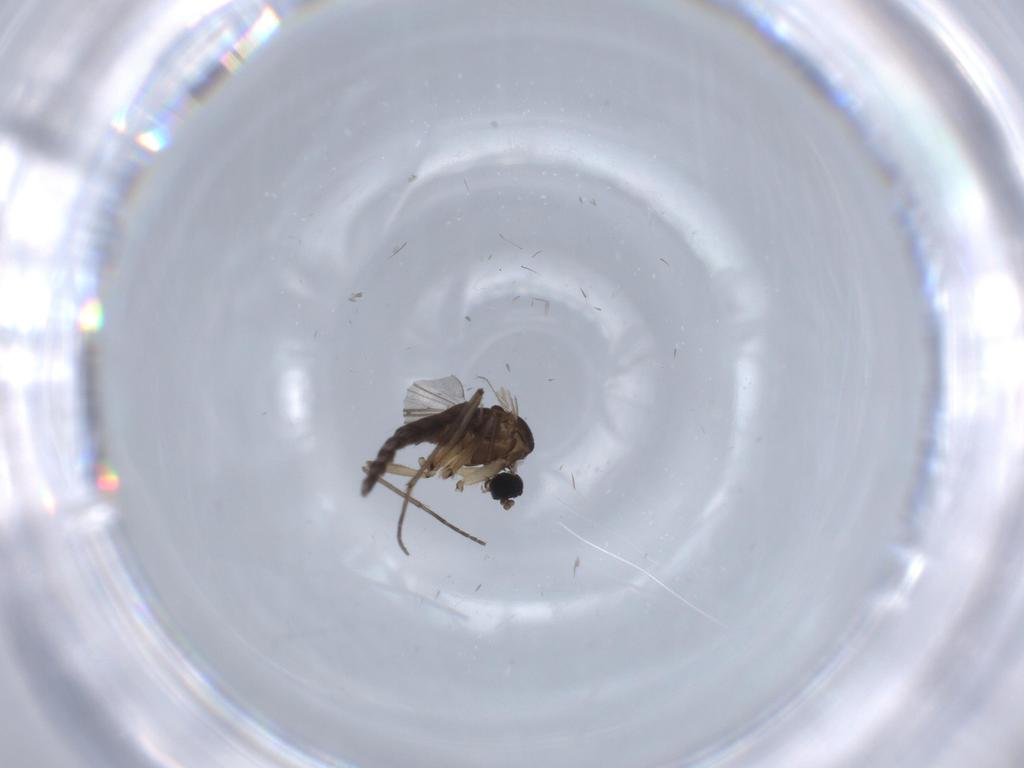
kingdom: Animalia
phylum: Arthropoda
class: Insecta
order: Diptera
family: Sciaridae
